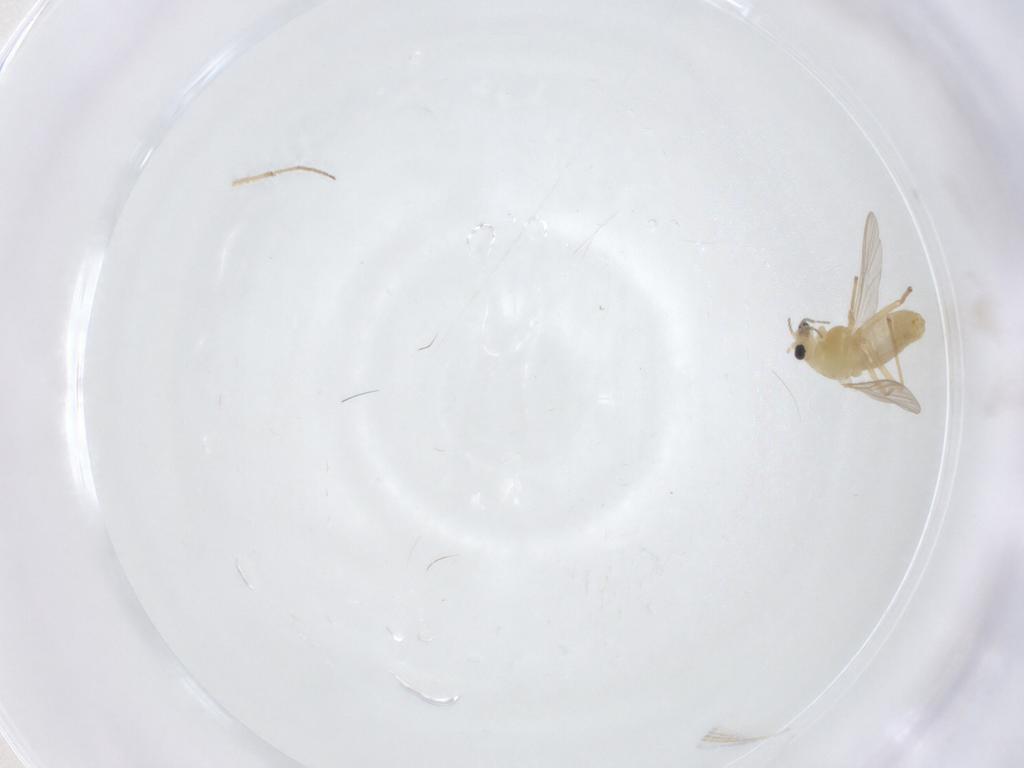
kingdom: Animalia
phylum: Arthropoda
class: Insecta
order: Diptera
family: Chironomidae
